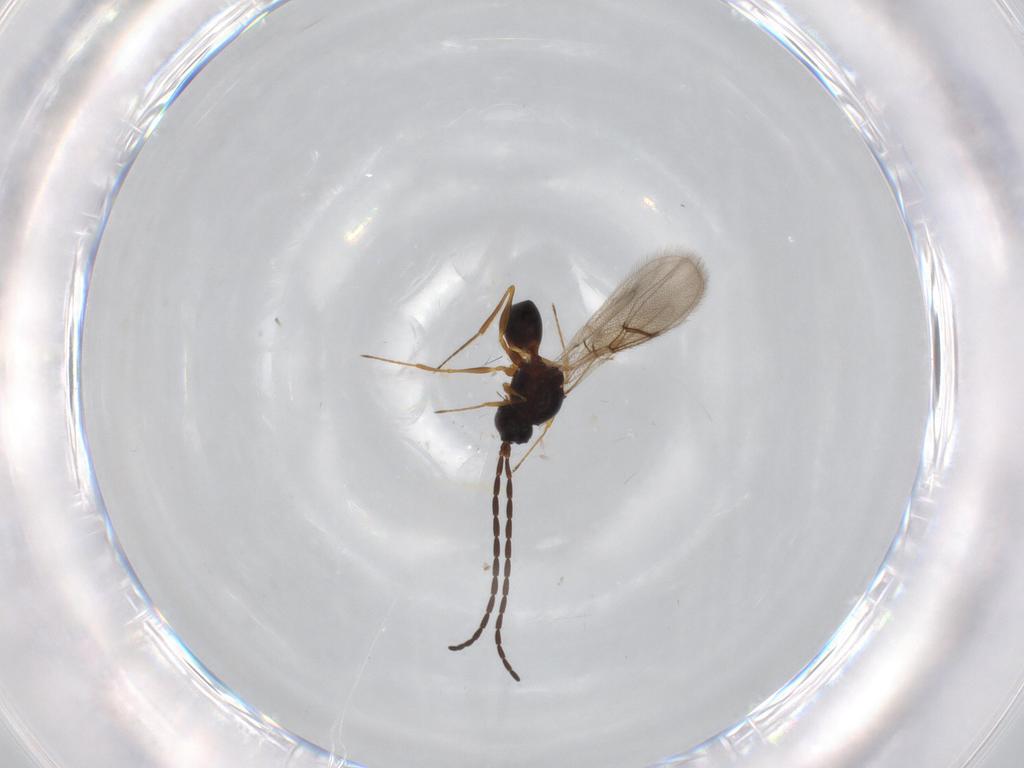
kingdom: Animalia
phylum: Arthropoda
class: Insecta
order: Hymenoptera
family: Figitidae
